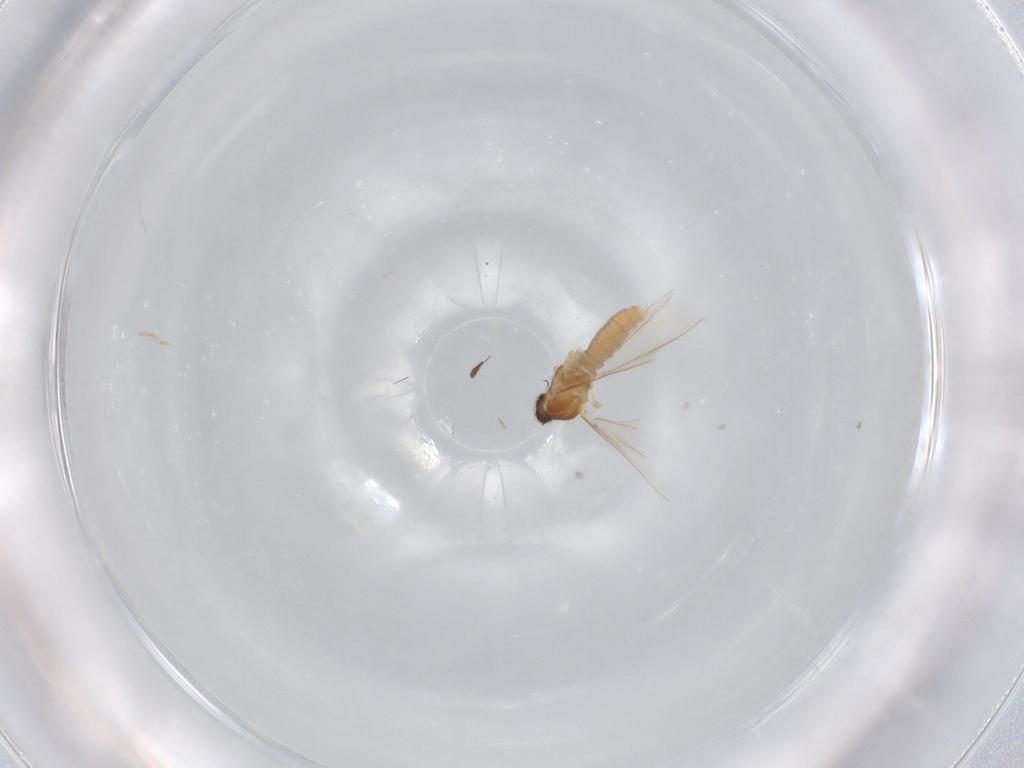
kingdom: Animalia
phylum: Arthropoda
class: Insecta
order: Diptera
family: Cecidomyiidae
